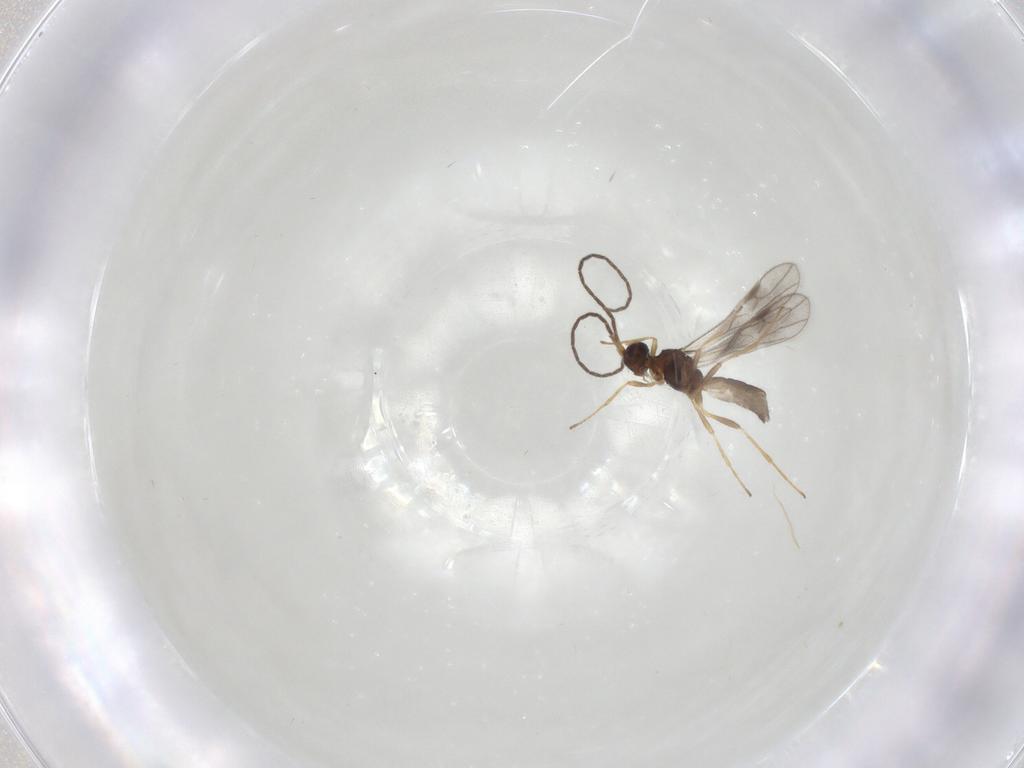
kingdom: Animalia
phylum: Arthropoda
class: Insecta
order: Hymenoptera
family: Braconidae
